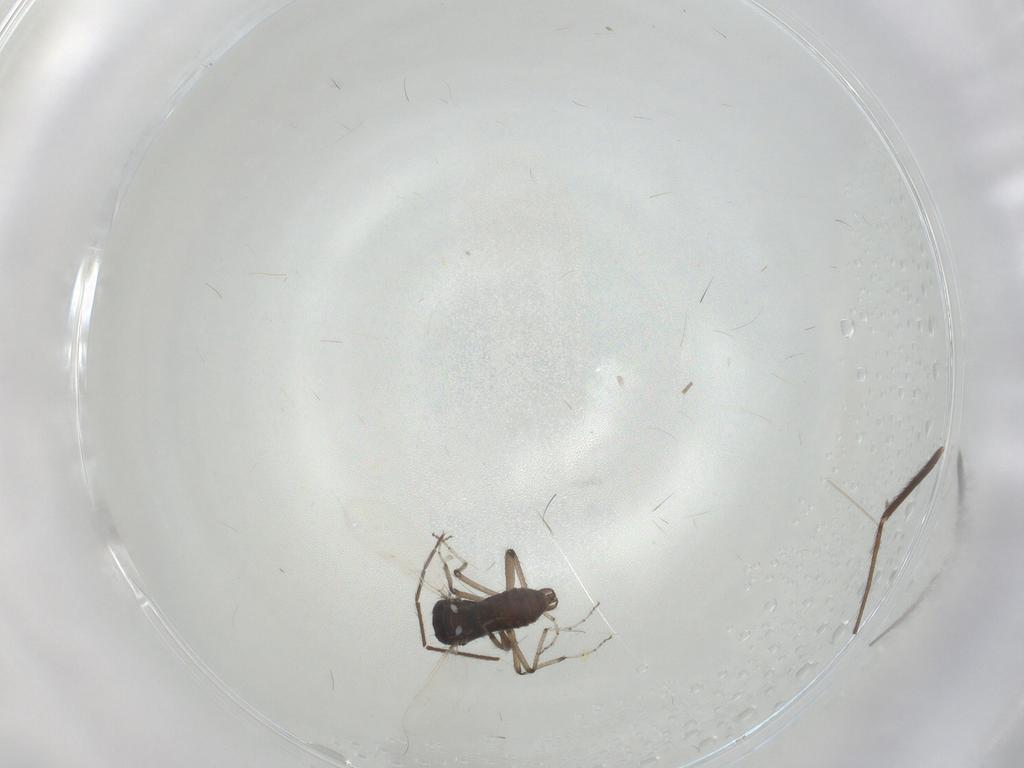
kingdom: Animalia
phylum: Arthropoda
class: Insecta
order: Diptera
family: Ceratopogonidae
